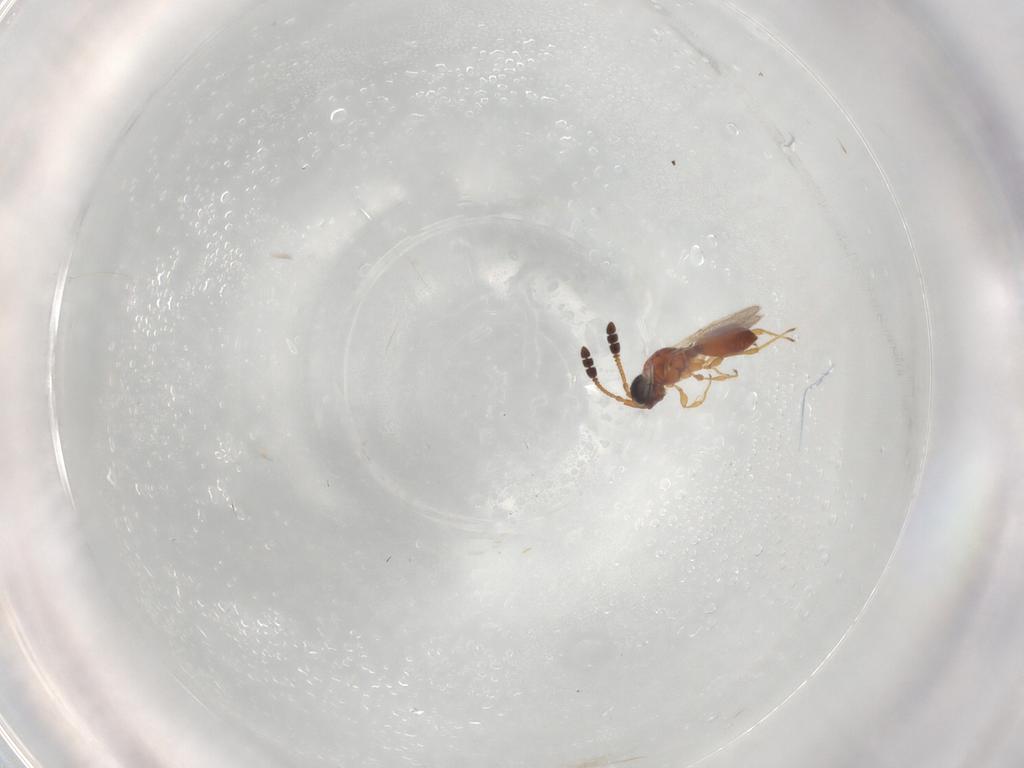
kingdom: Animalia
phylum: Arthropoda
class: Insecta
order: Hymenoptera
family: Diapriidae
